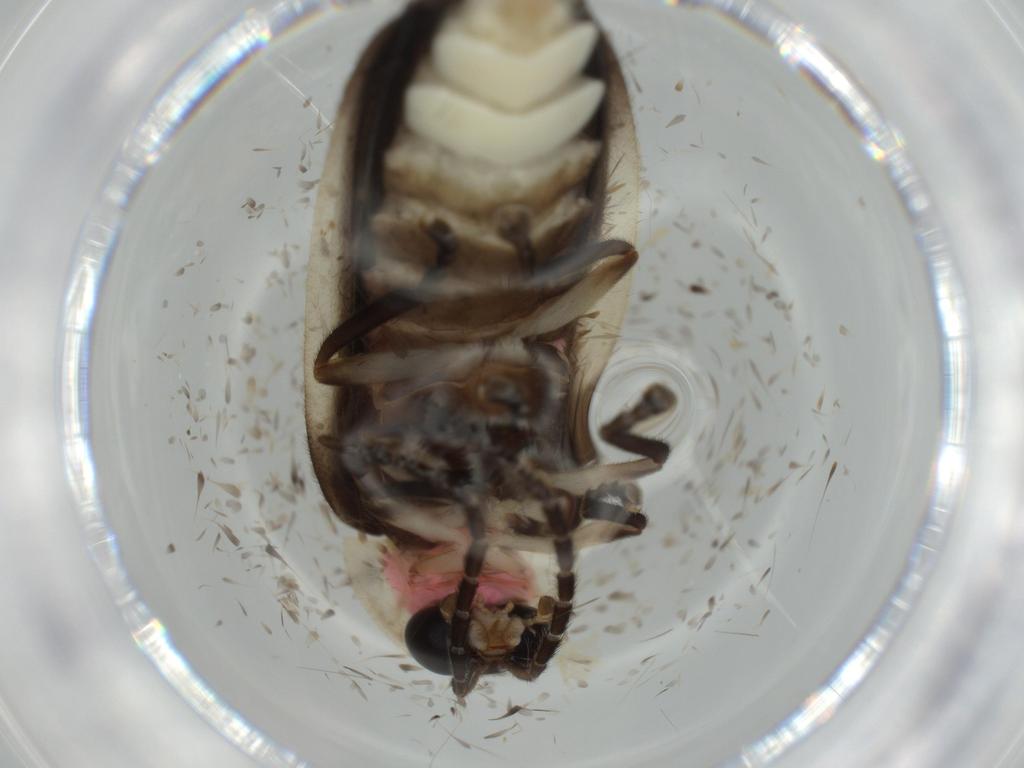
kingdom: Animalia
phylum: Arthropoda
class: Insecta
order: Coleoptera
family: Lampyridae
